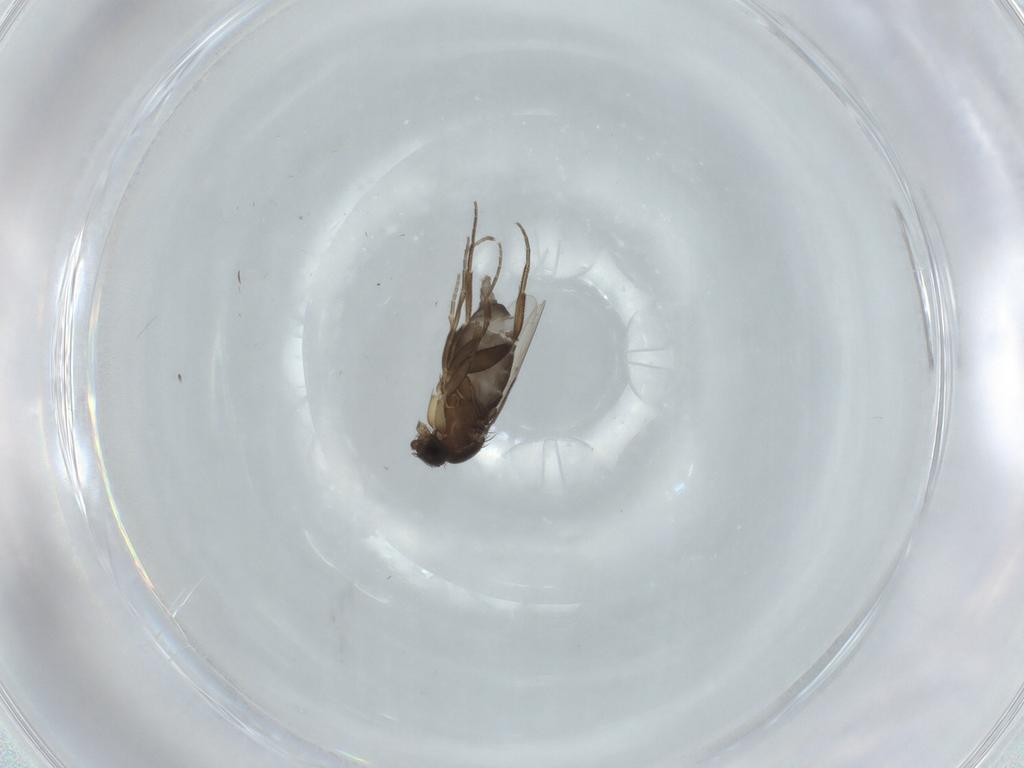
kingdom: Animalia
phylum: Arthropoda
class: Insecta
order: Diptera
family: Phoridae
